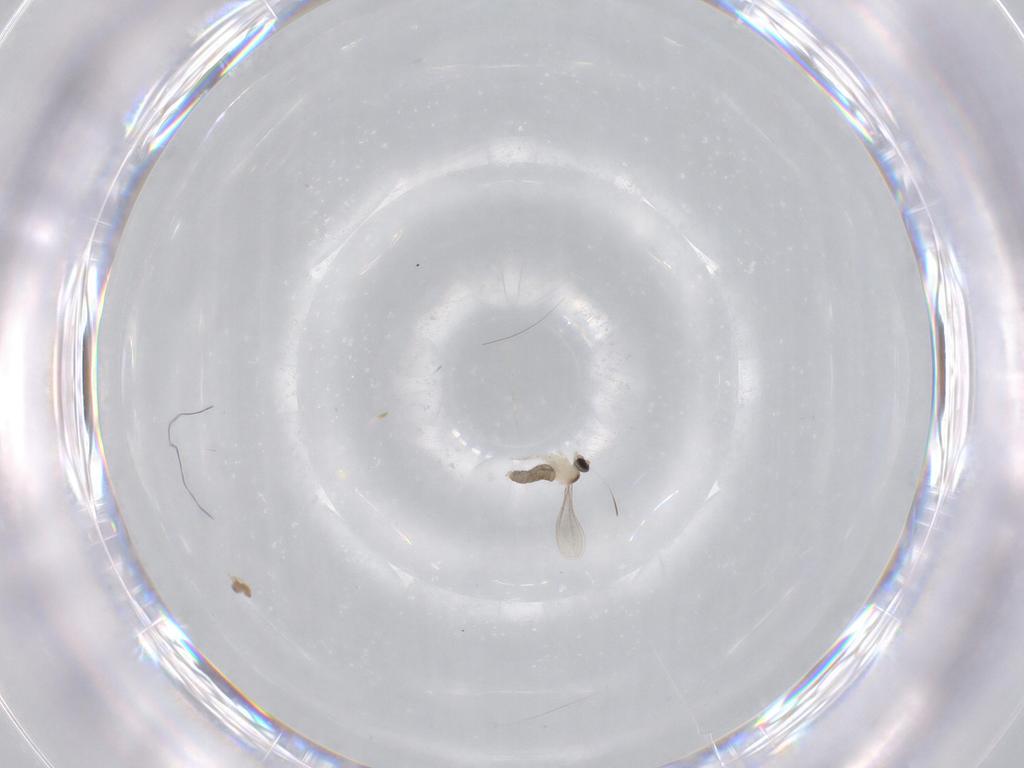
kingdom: Animalia
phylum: Arthropoda
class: Insecta
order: Diptera
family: Cecidomyiidae
